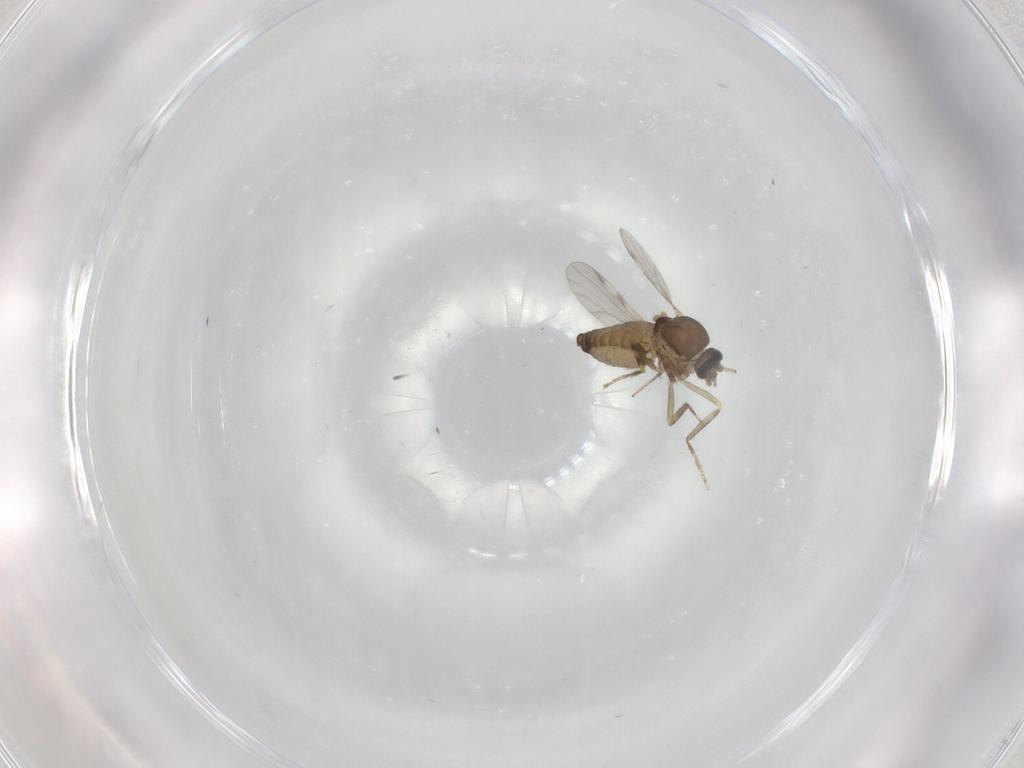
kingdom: Animalia
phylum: Arthropoda
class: Insecta
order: Diptera
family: Ceratopogonidae
